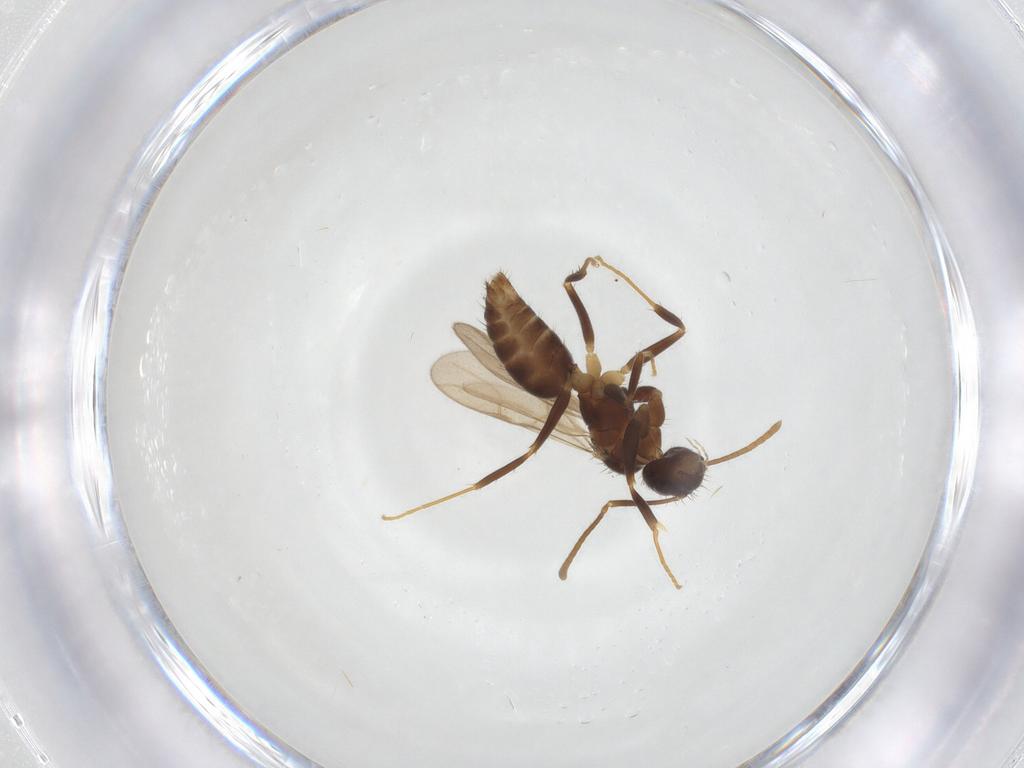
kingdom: Animalia
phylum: Arthropoda
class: Insecta
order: Hymenoptera
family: Formicidae
